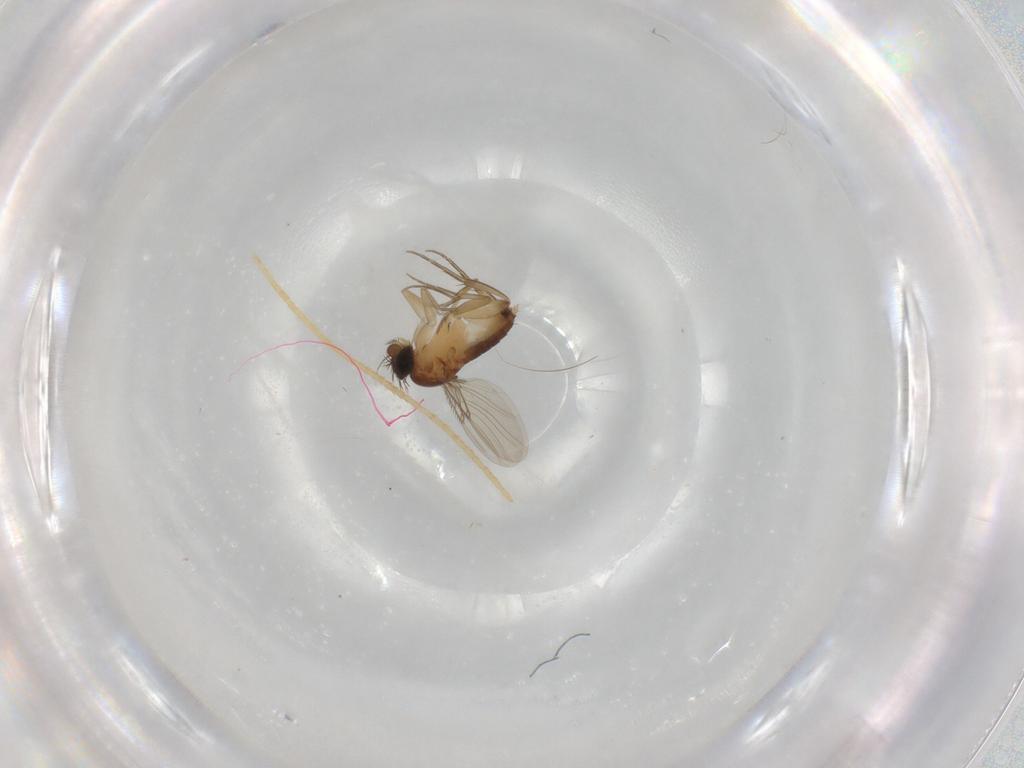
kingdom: Animalia
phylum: Arthropoda
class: Insecta
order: Diptera
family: Phoridae
